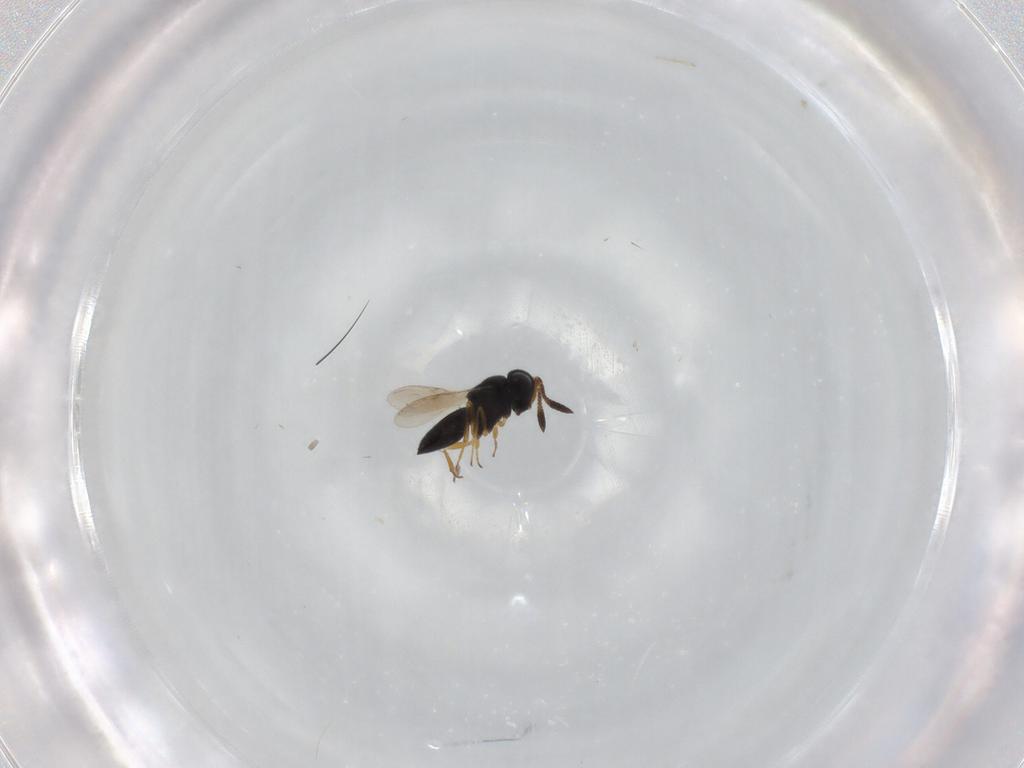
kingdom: Animalia
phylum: Arthropoda
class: Insecta
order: Hymenoptera
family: Scelionidae
